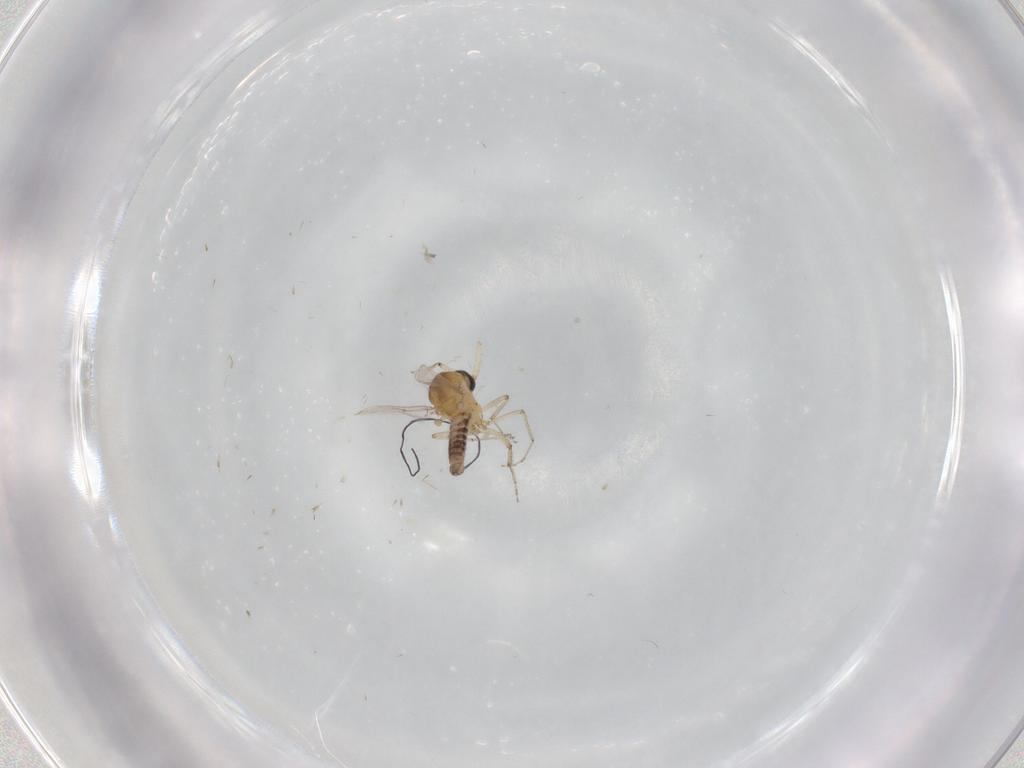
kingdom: Animalia
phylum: Arthropoda
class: Insecta
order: Diptera
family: Ceratopogonidae
